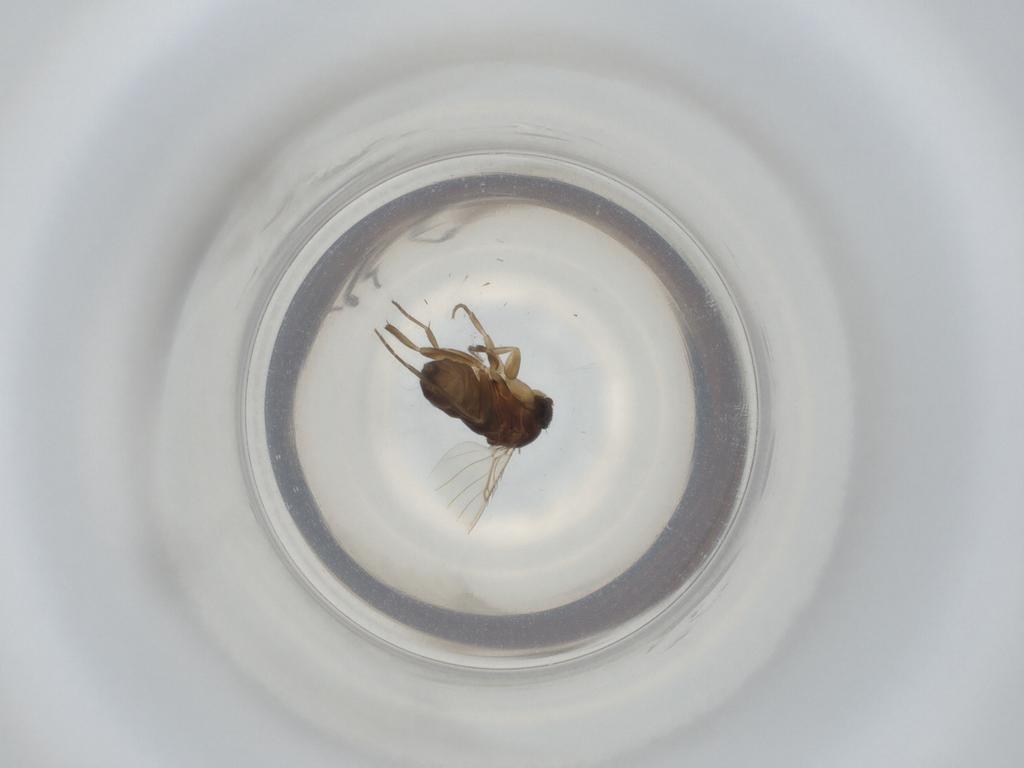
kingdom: Animalia
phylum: Arthropoda
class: Insecta
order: Diptera
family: Phoridae
